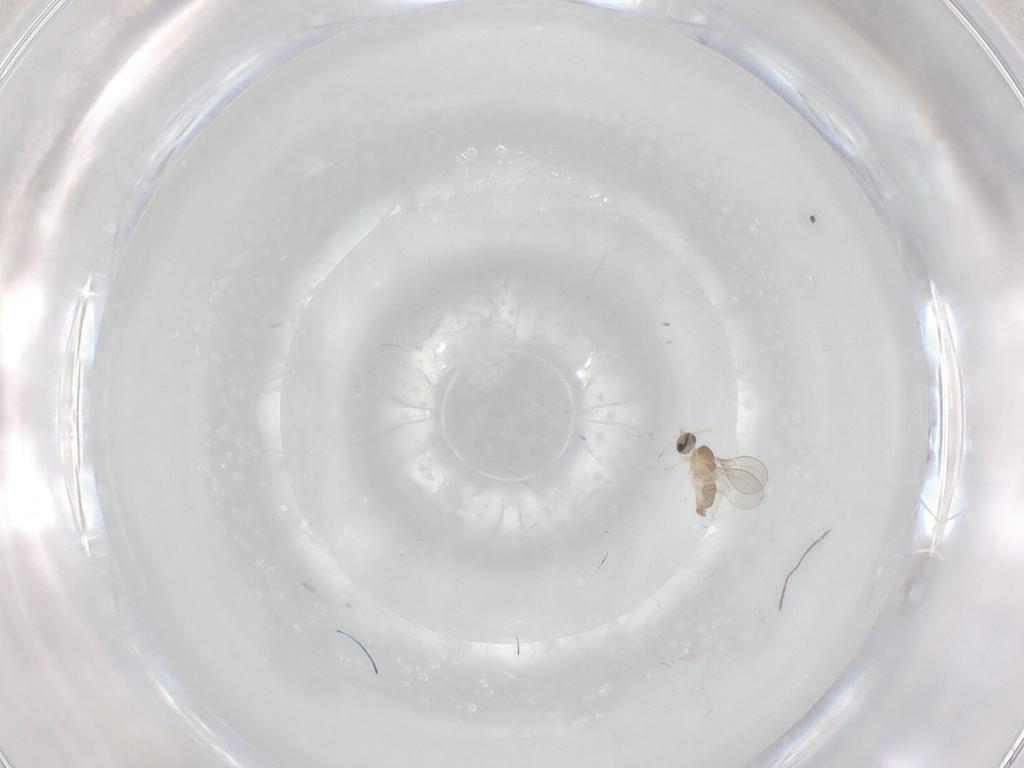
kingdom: Animalia
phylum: Arthropoda
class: Insecta
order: Diptera
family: Cecidomyiidae
